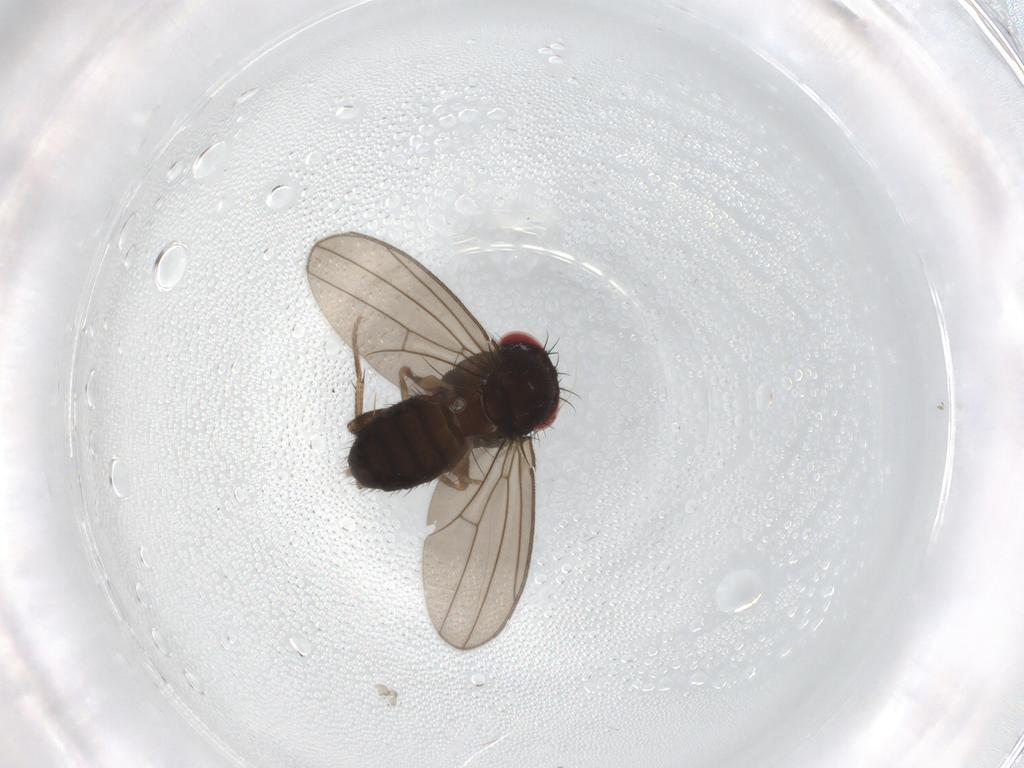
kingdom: Animalia
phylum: Arthropoda
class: Insecta
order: Diptera
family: Drosophilidae
